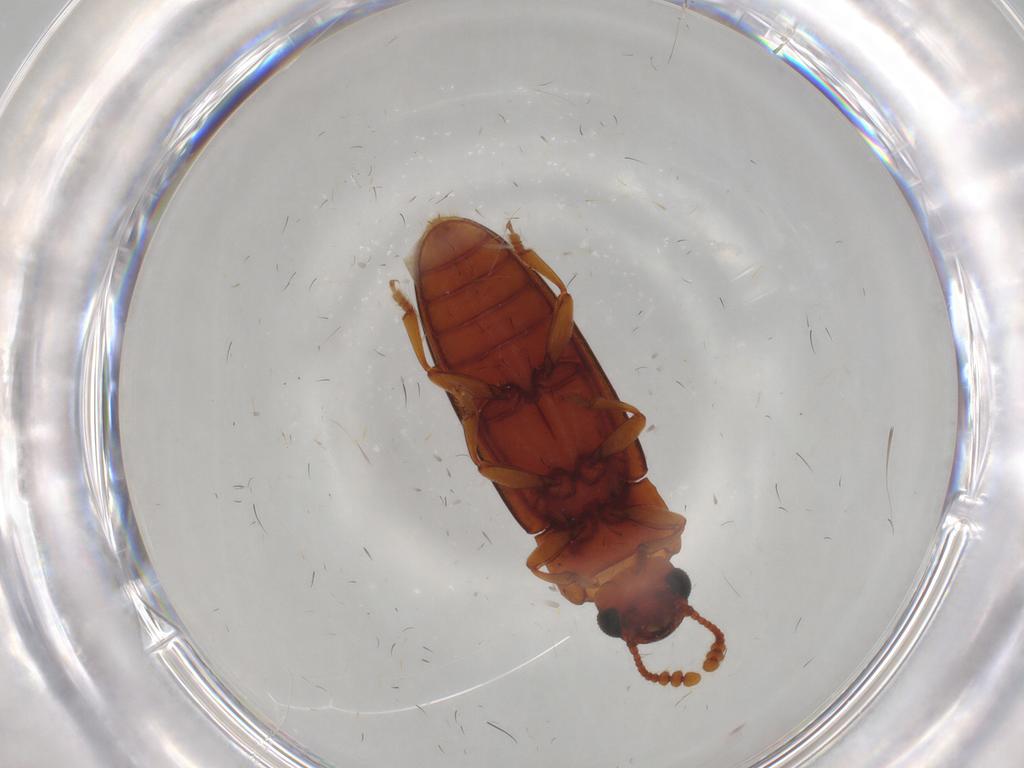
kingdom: Animalia
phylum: Arthropoda
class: Insecta
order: Coleoptera
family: Erotylidae
